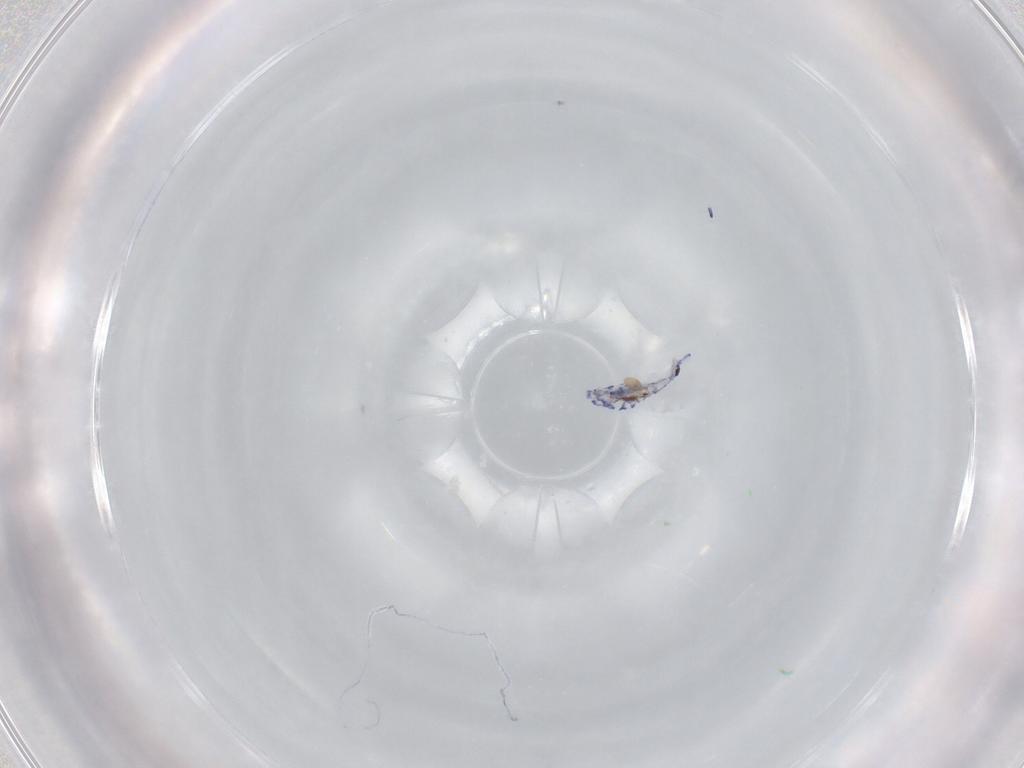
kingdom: Animalia
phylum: Arthropoda
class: Collembola
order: Entomobryomorpha
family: Entomobryidae
